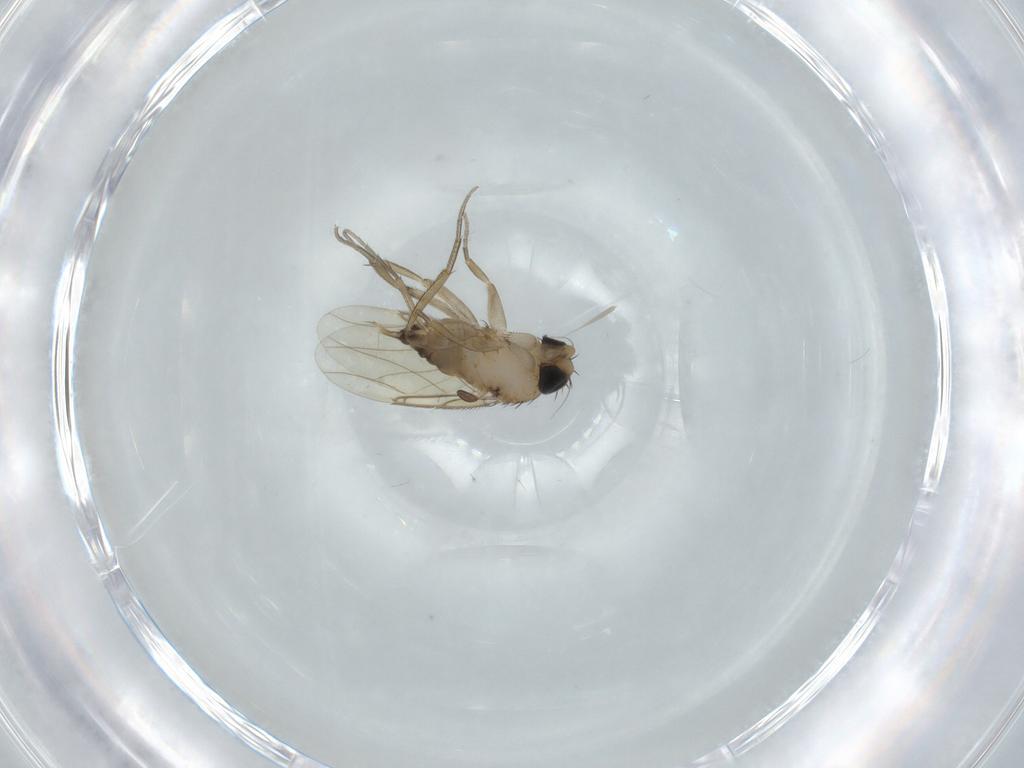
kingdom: Animalia
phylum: Arthropoda
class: Insecta
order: Diptera
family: Phoridae
